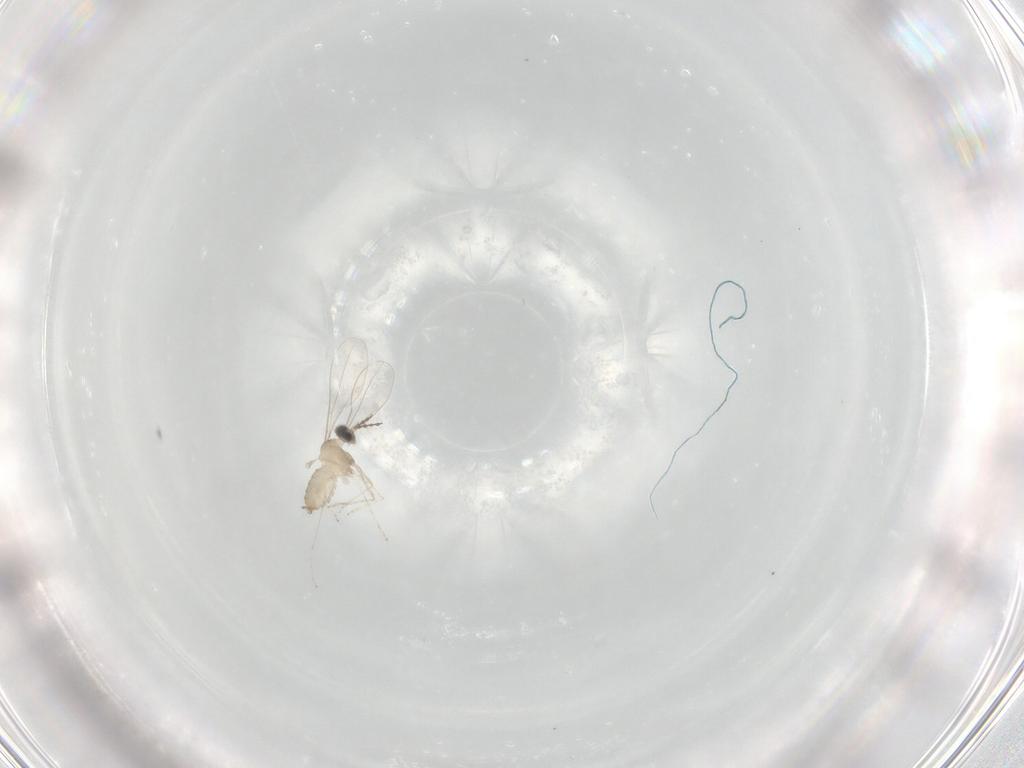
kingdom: Animalia
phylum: Arthropoda
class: Insecta
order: Diptera
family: Cecidomyiidae
